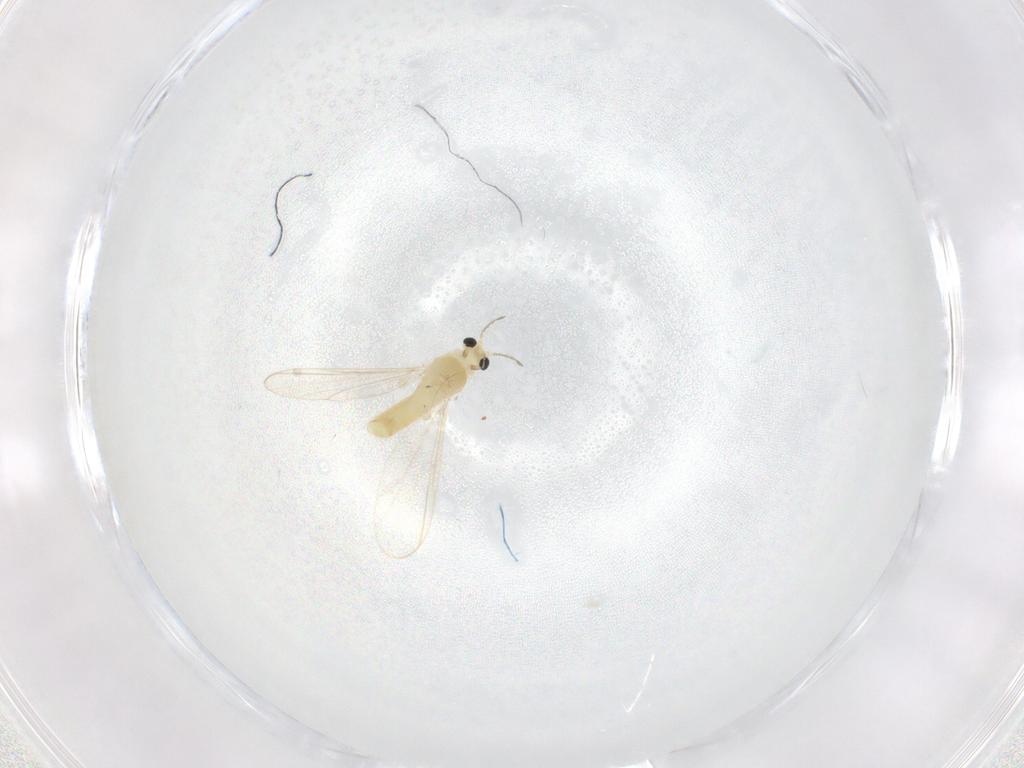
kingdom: Animalia
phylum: Arthropoda
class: Insecta
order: Diptera
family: Chironomidae
